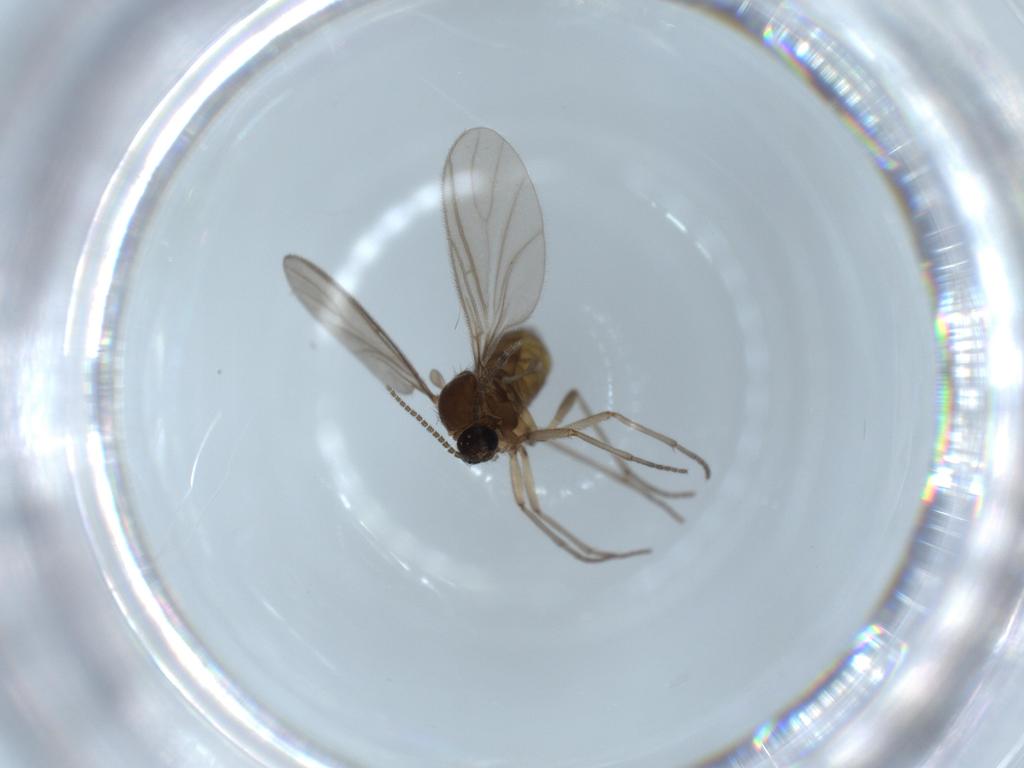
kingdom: Animalia
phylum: Arthropoda
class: Insecta
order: Diptera
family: Sciaridae
